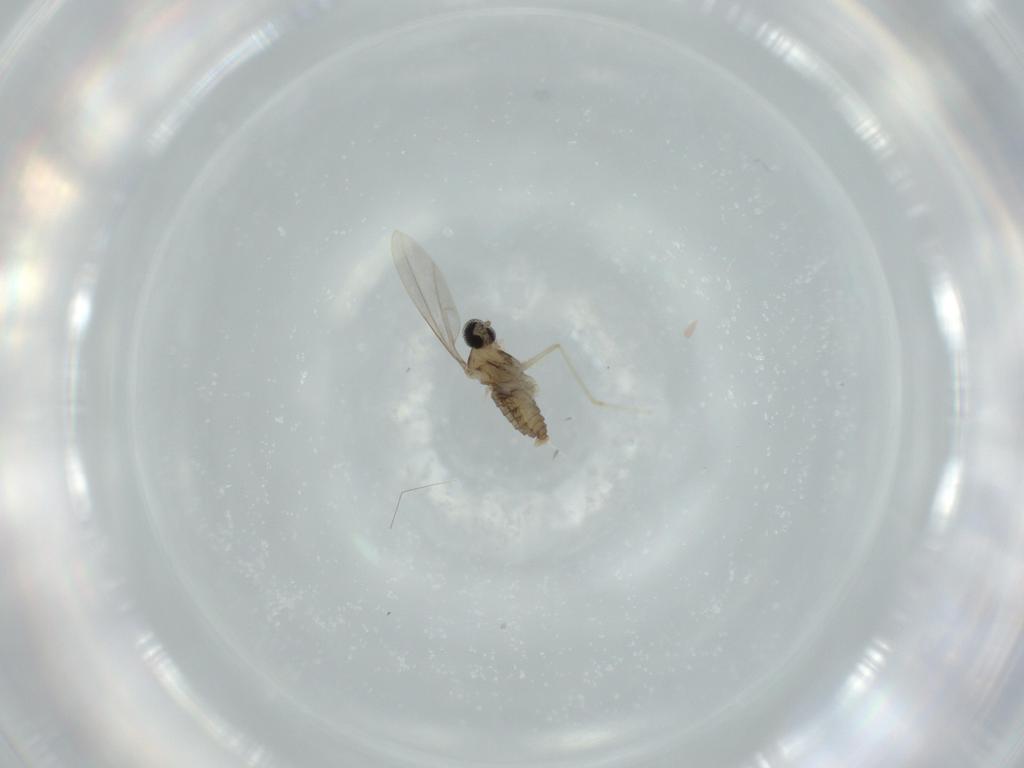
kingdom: Animalia
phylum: Arthropoda
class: Insecta
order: Diptera
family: Cecidomyiidae
